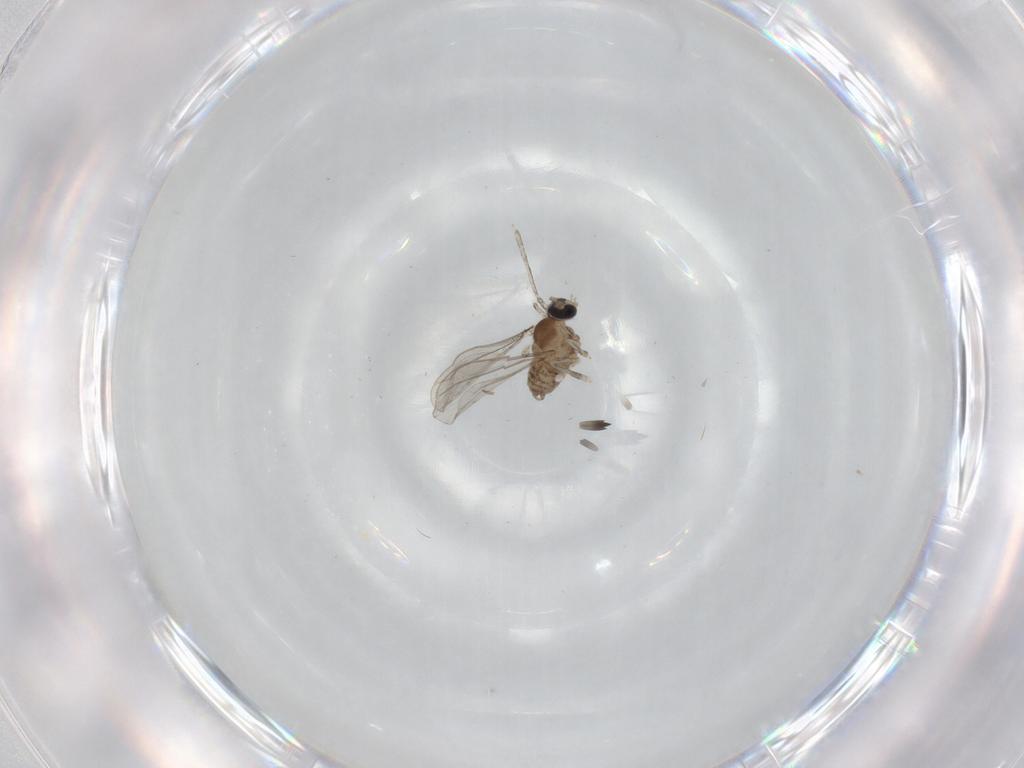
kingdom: Animalia
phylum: Arthropoda
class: Insecta
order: Diptera
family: Cecidomyiidae
